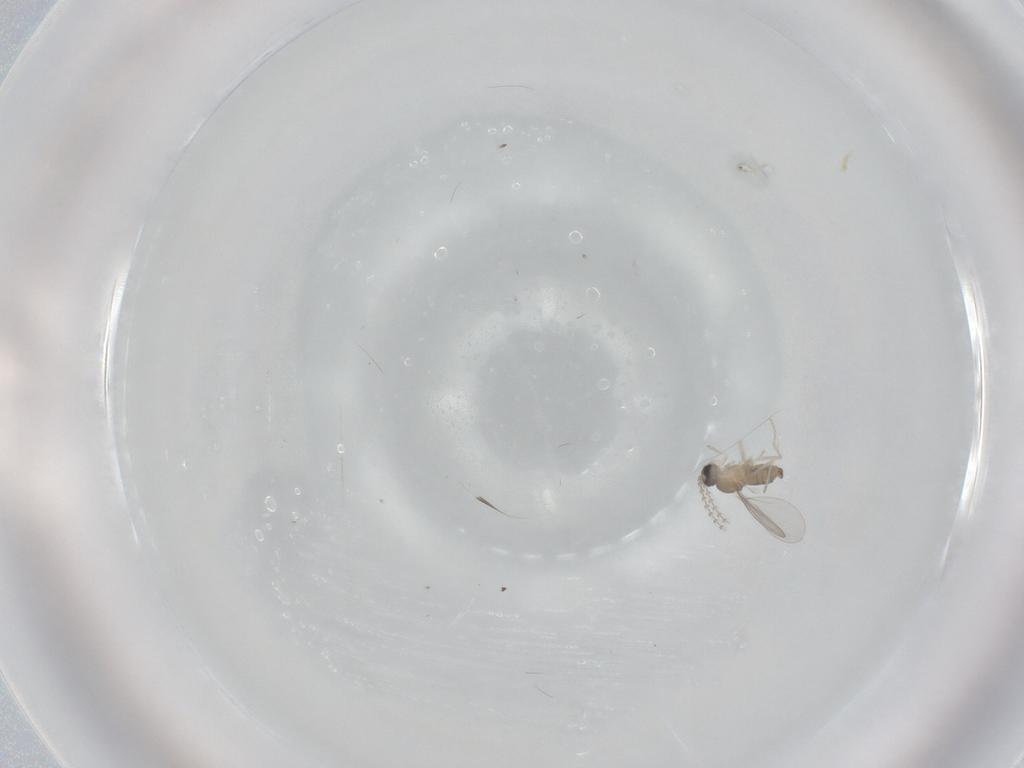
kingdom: Animalia
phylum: Arthropoda
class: Insecta
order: Diptera
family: Cecidomyiidae
